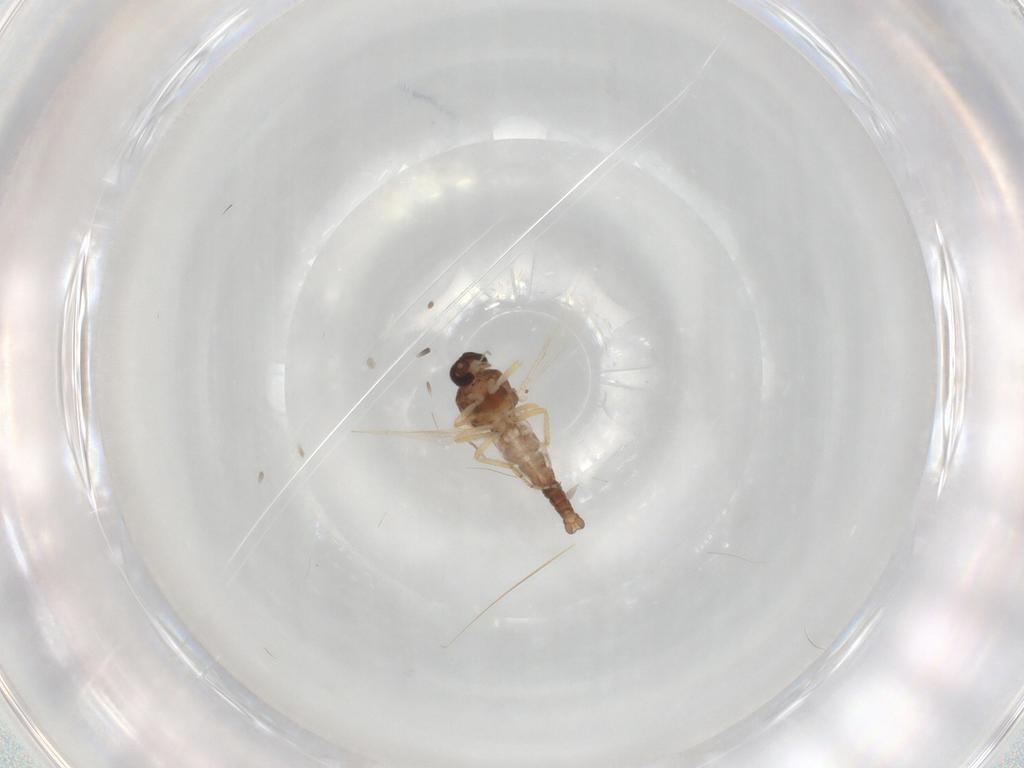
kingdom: Animalia
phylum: Arthropoda
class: Insecta
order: Diptera
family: Ceratopogonidae
